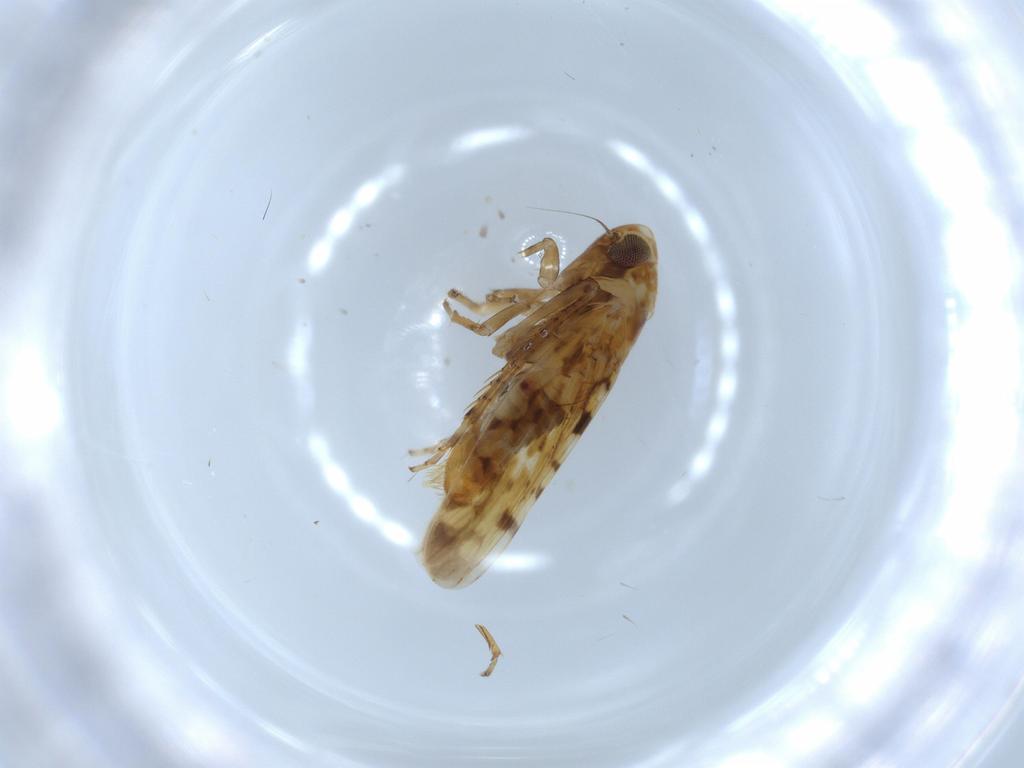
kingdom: Animalia
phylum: Arthropoda
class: Insecta
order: Hemiptera
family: Cicadellidae
